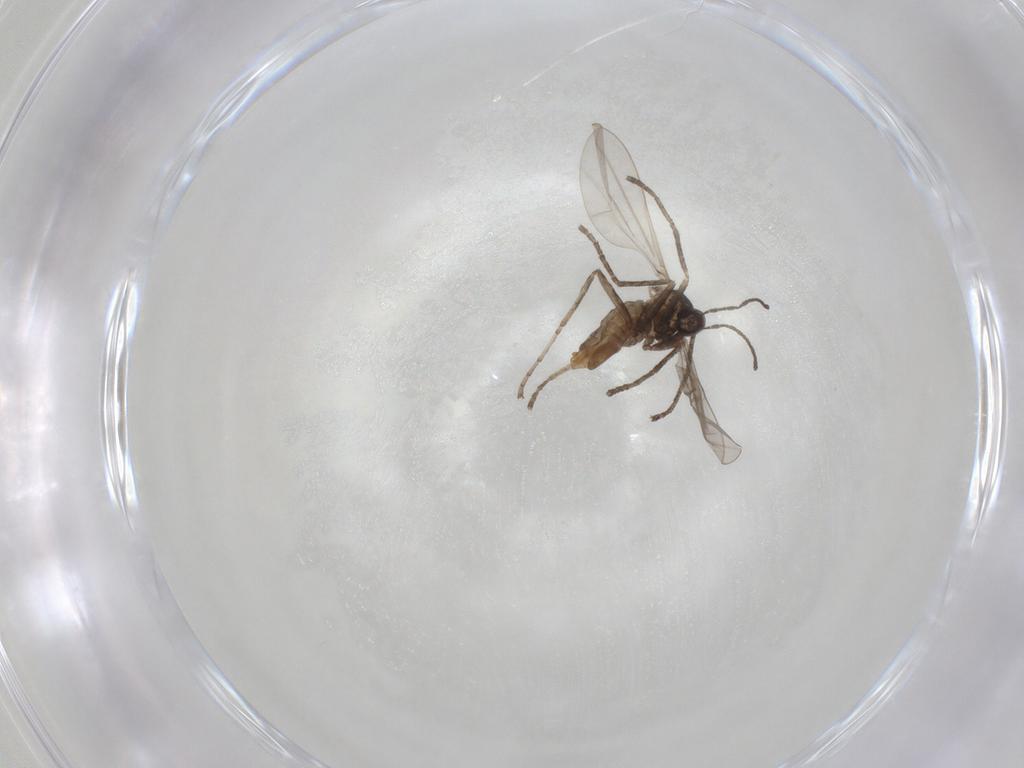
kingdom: Animalia
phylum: Arthropoda
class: Insecta
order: Diptera
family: Cecidomyiidae
